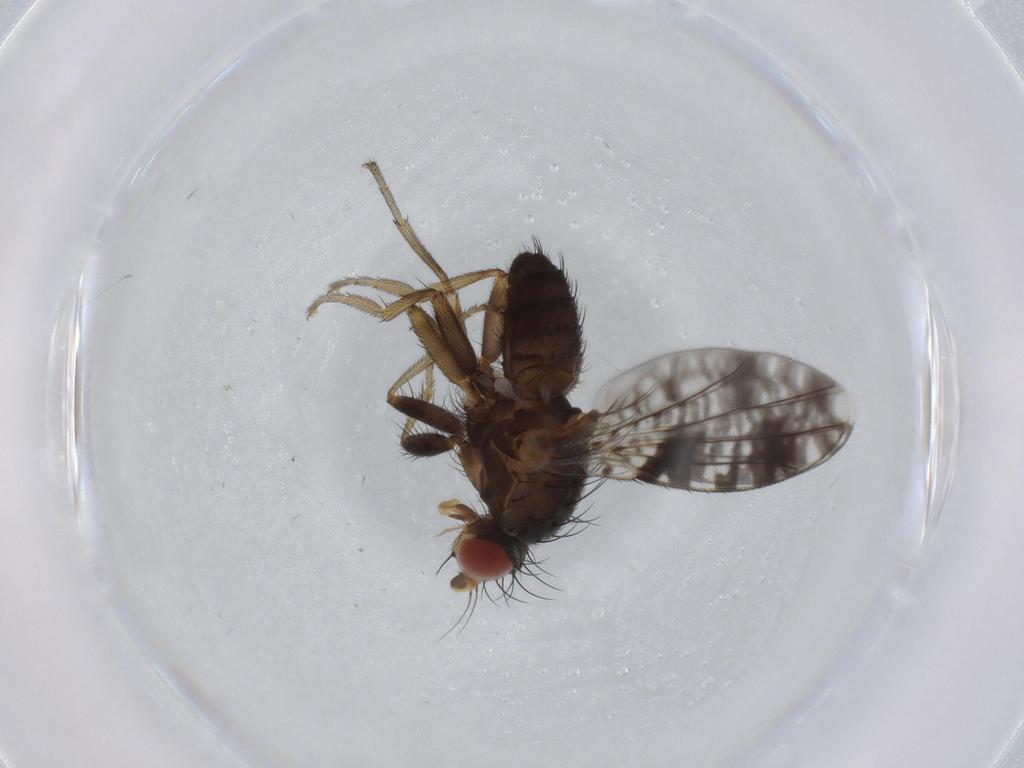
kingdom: Animalia
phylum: Arthropoda
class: Insecta
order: Diptera
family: Tephritidae
